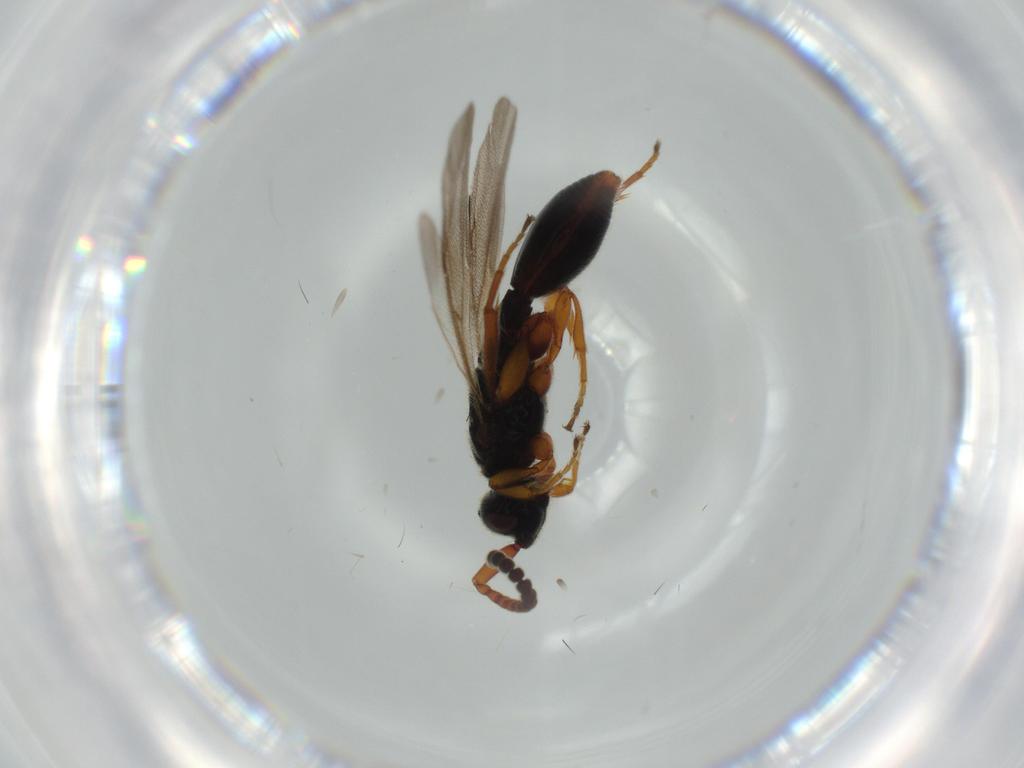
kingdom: Animalia
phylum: Arthropoda
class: Insecta
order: Hymenoptera
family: Diapriidae
